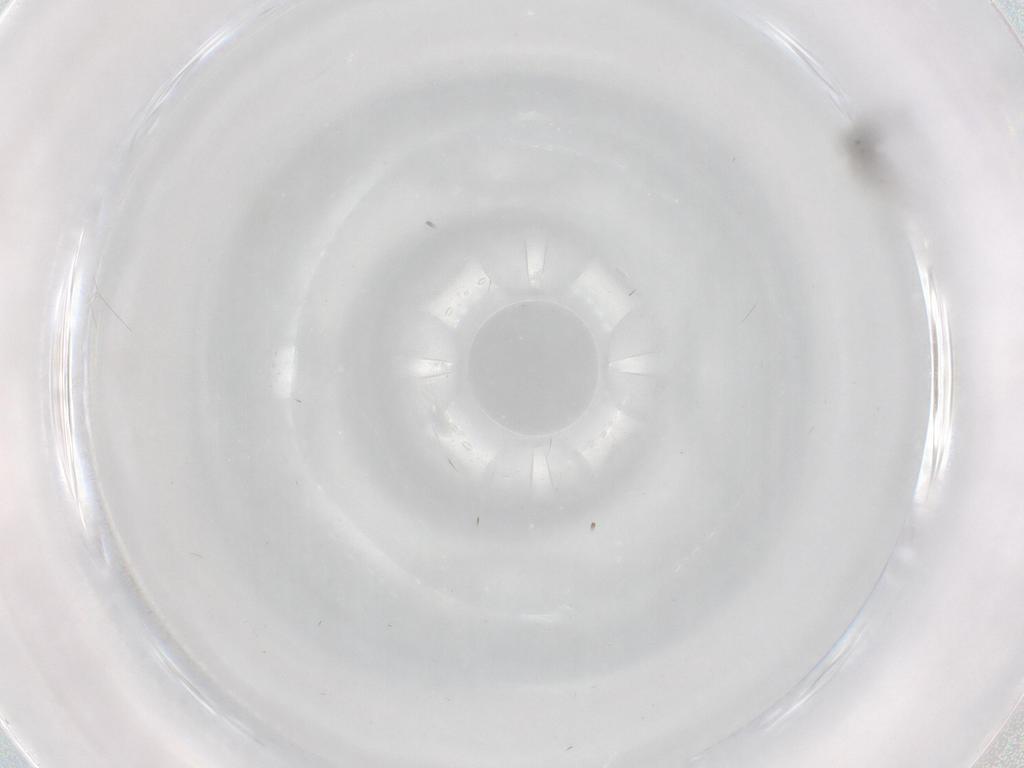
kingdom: Animalia
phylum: Arthropoda
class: Insecta
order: Diptera
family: Cecidomyiidae
